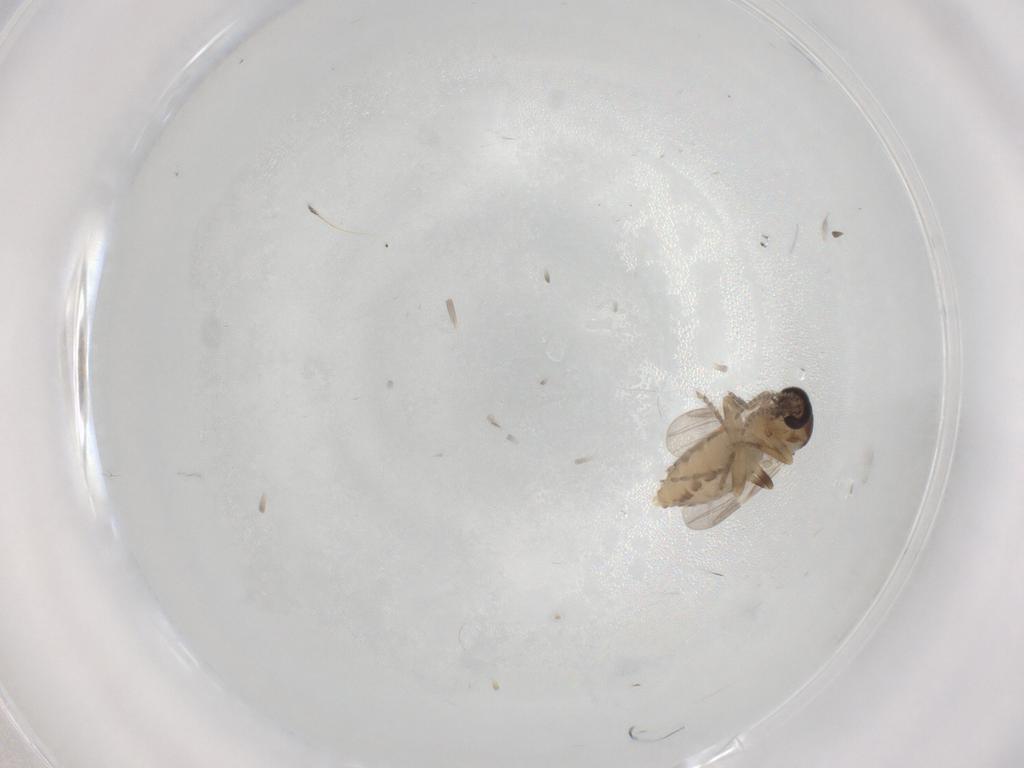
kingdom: Animalia
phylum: Arthropoda
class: Insecta
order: Diptera
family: Ceratopogonidae
